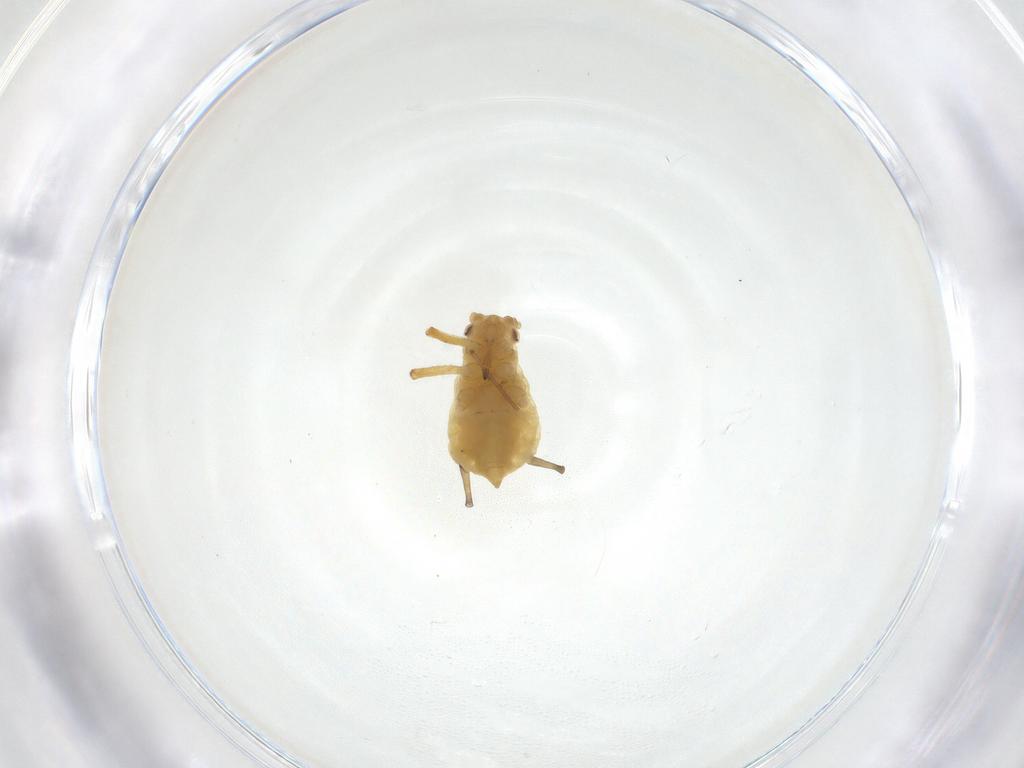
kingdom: Animalia
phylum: Arthropoda
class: Insecta
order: Hemiptera
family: Aphididae
